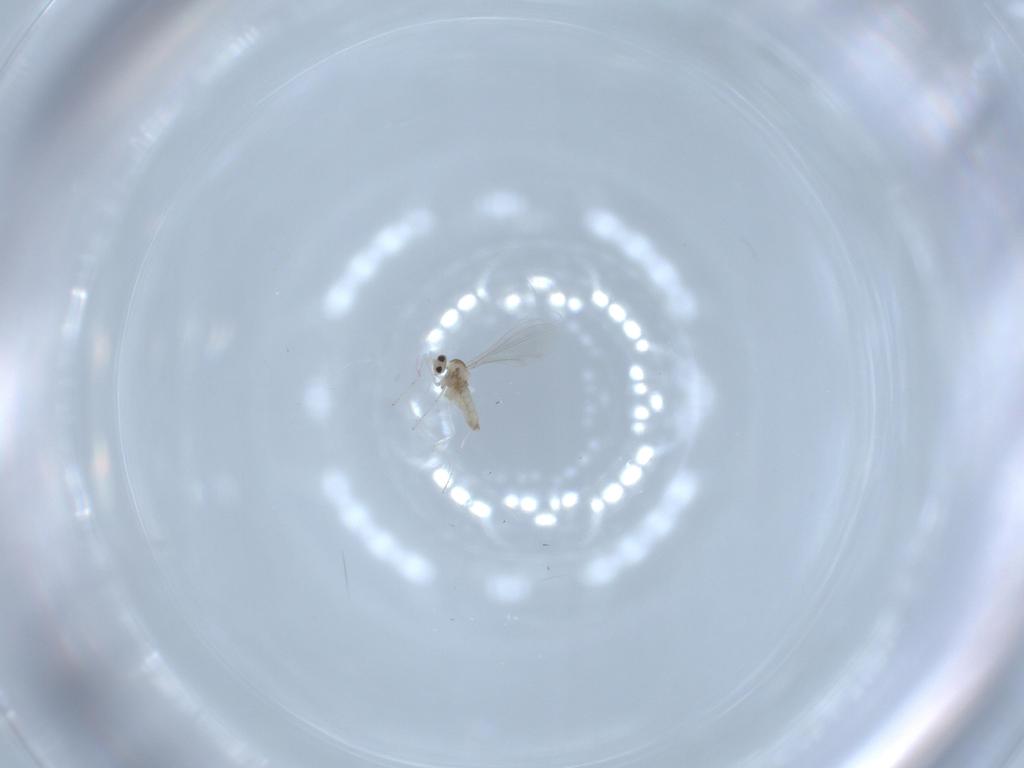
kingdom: Animalia
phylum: Arthropoda
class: Insecta
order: Diptera
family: Cecidomyiidae
